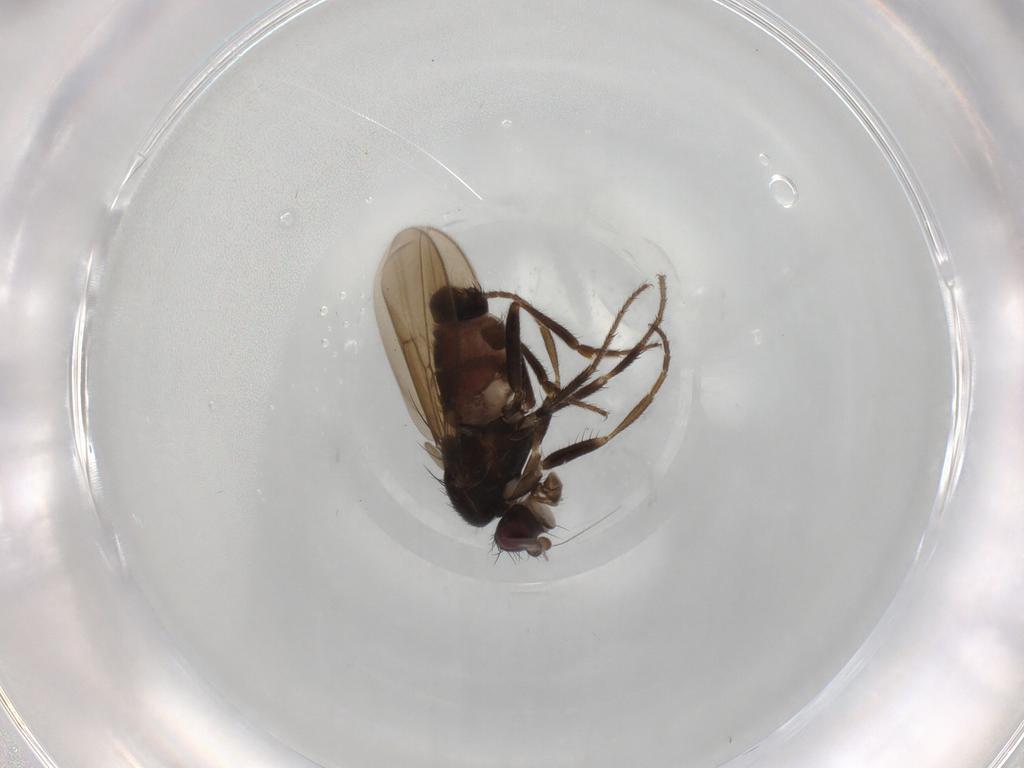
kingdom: Animalia
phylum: Arthropoda
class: Insecta
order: Diptera
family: Sphaeroceridae
